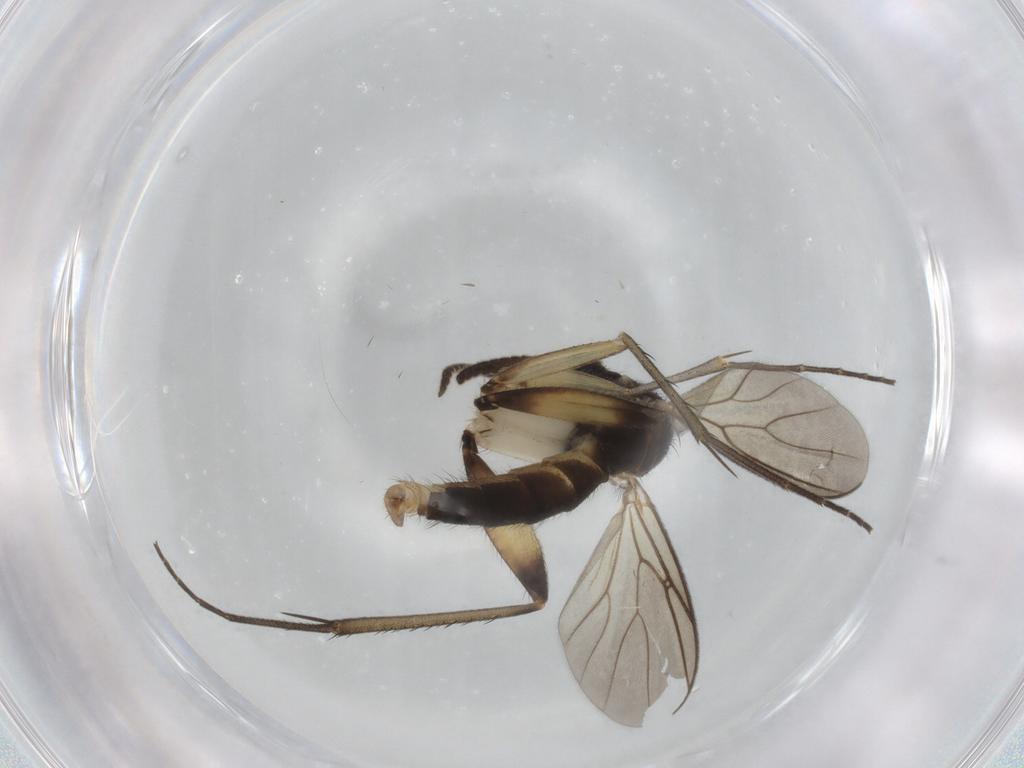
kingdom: Animalia
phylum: Arthropoda
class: Insecta
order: Diptera
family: Mycetophilidae
